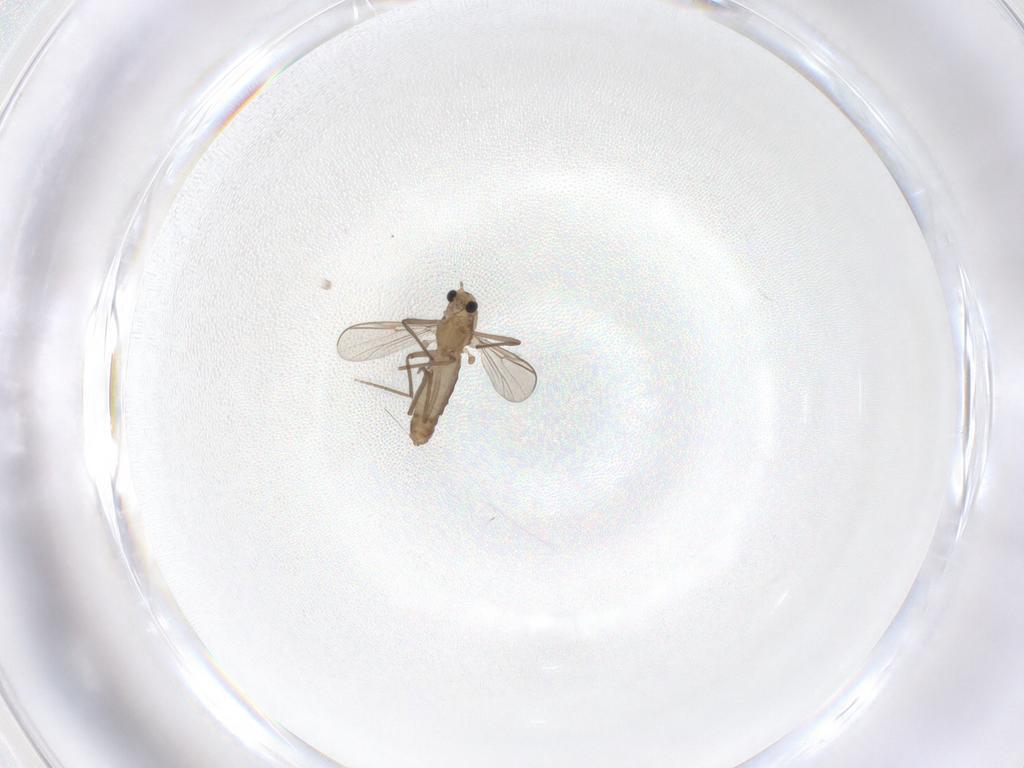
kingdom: Animalia
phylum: Arthropoda
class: Insecta
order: Diptera
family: Chironomidae
